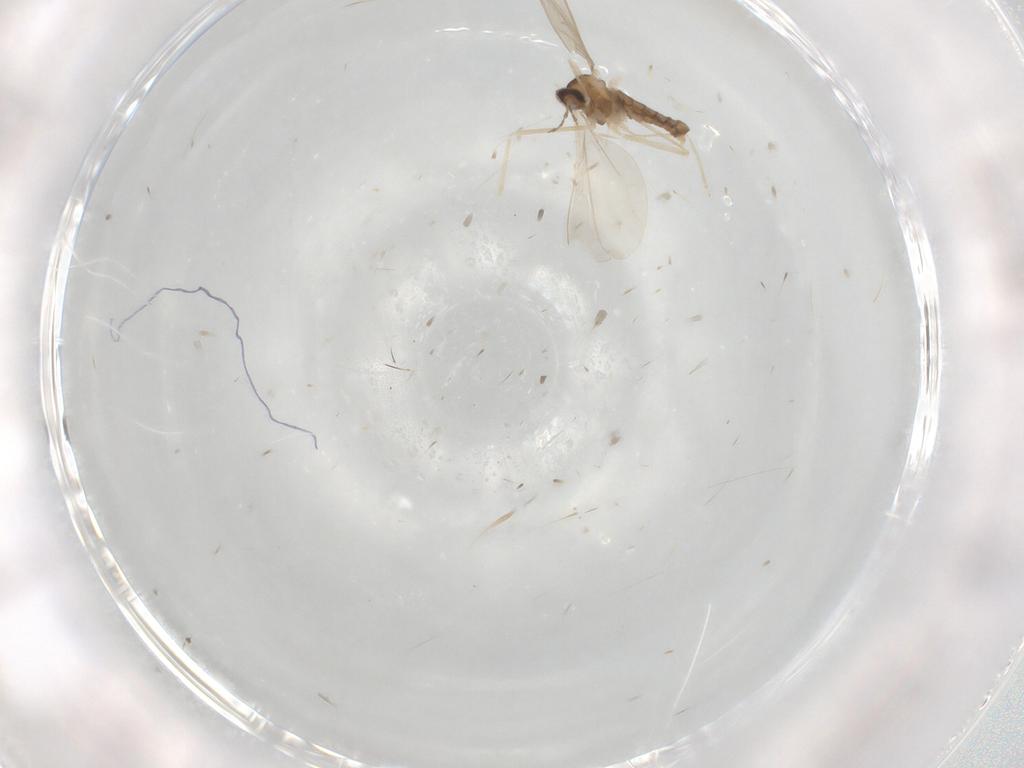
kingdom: Animalia
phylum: Arthropoda
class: Insecta
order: Diptera
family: Cecidomyiidae
